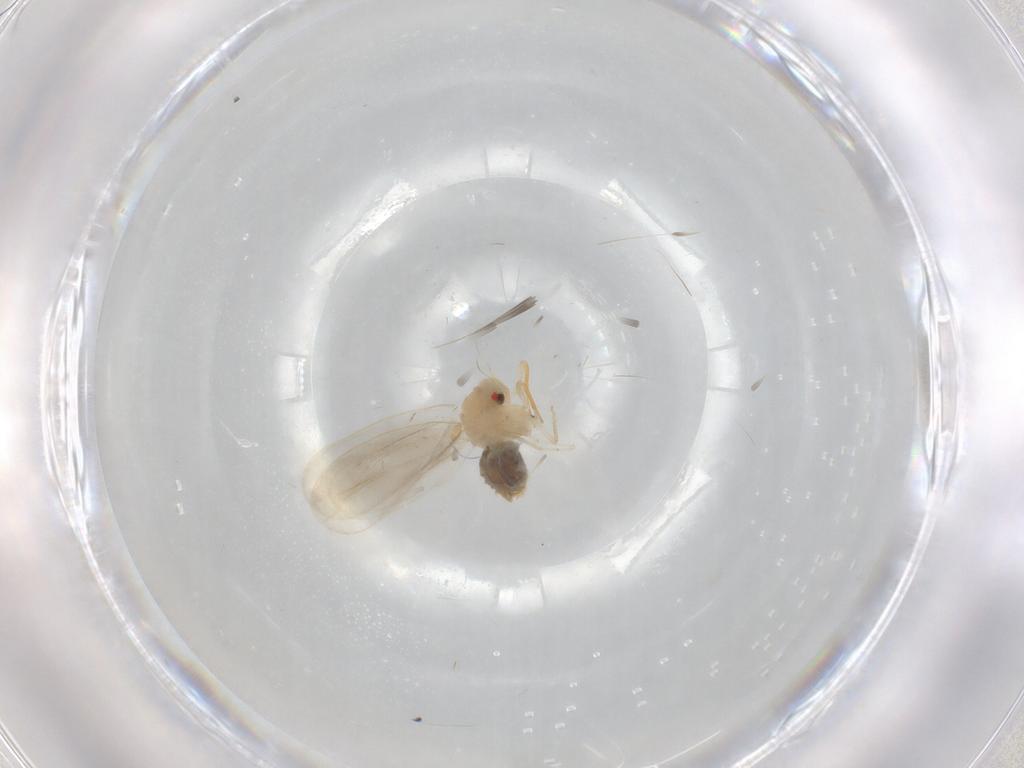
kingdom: Animalia
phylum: Arthropoda
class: Insecta
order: Hemiptera
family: Aleyrodidae
